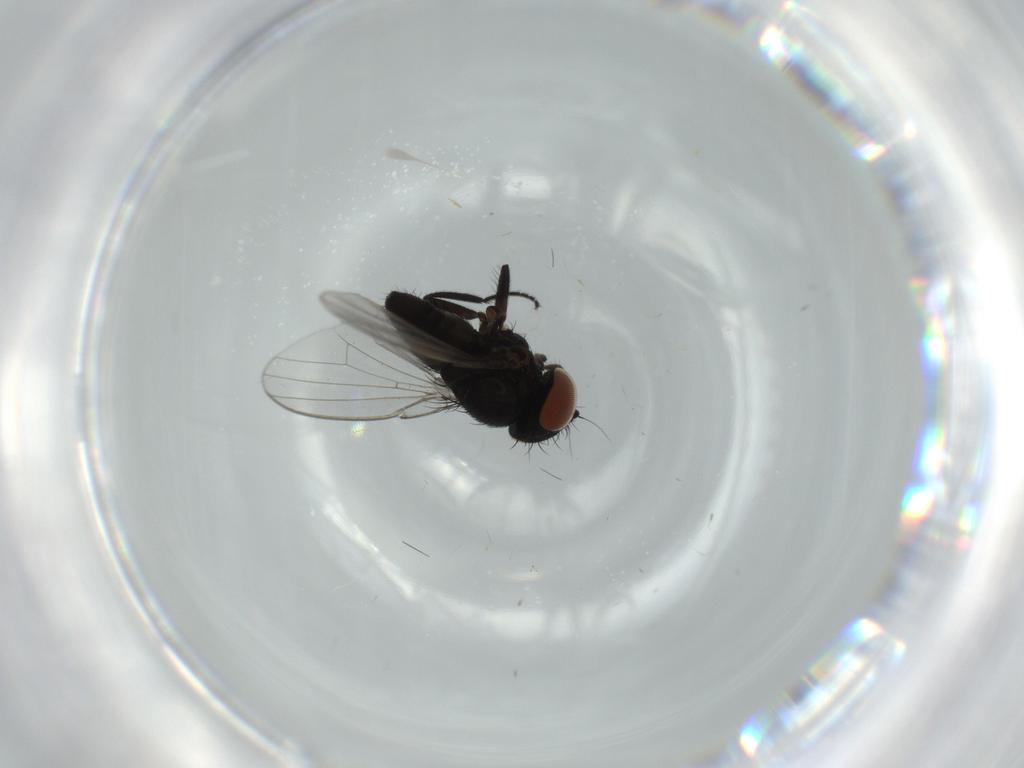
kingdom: Animalia
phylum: Arthropoda
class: Insecta
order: Diptera
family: Milichiidae
